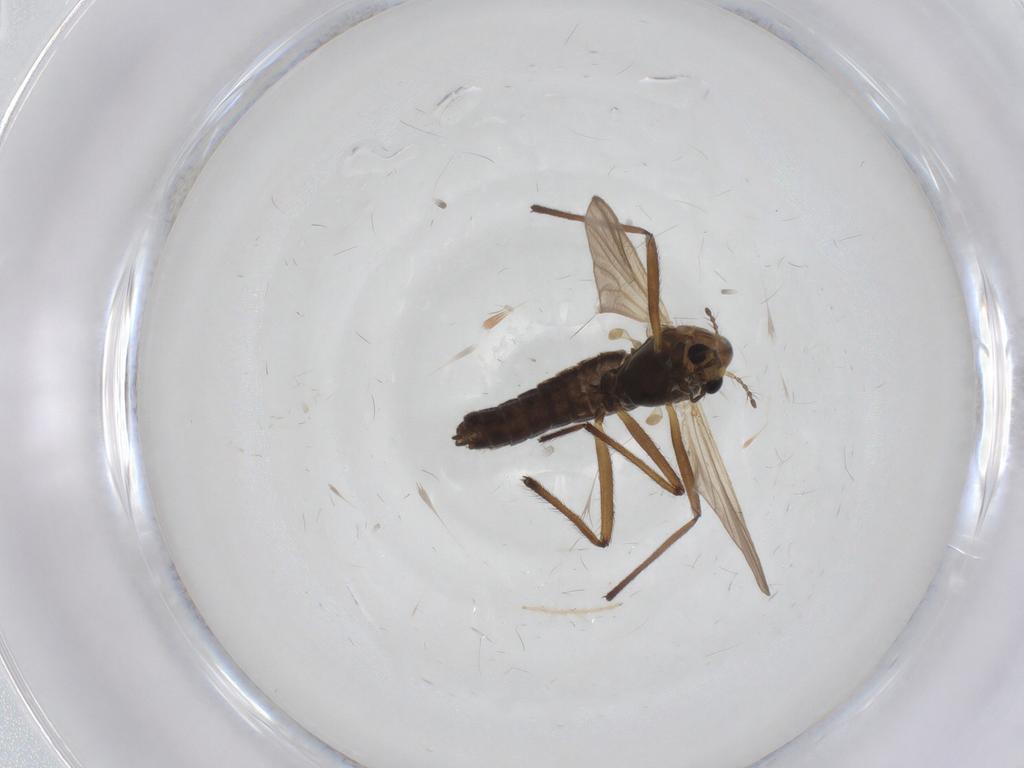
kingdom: Animalia
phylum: Arthropoda
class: Insecta
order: Diptera
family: Chironomidae
